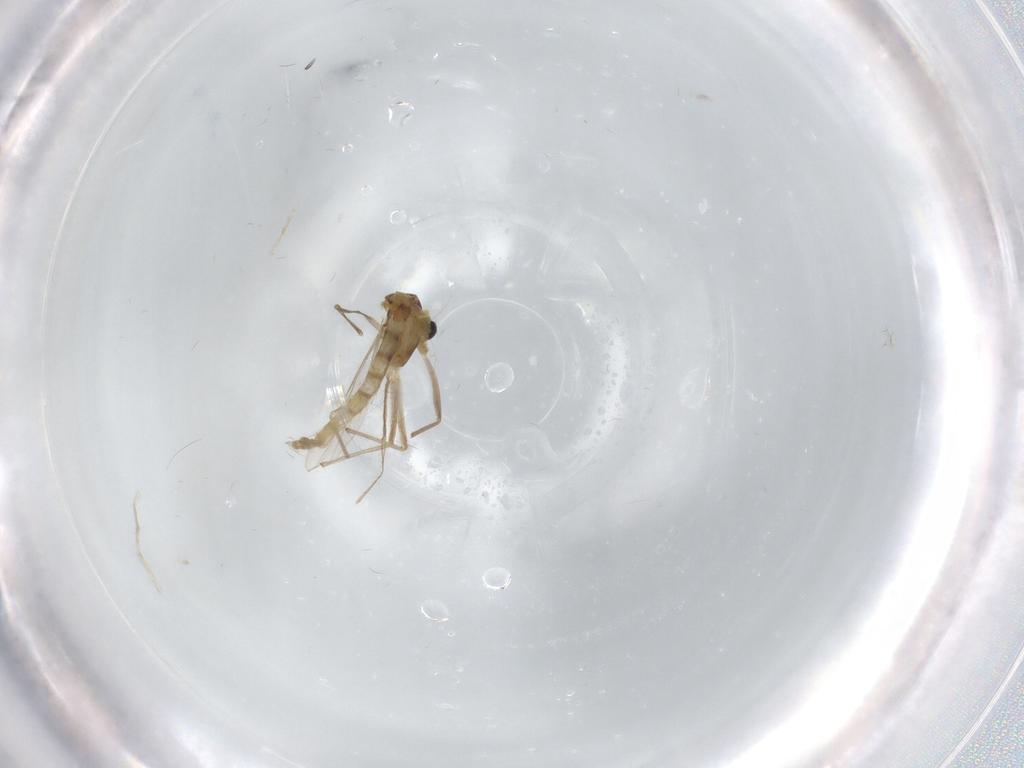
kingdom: Animalia
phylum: Arthropoda
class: Insecta
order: Diptera
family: Chironomidae
